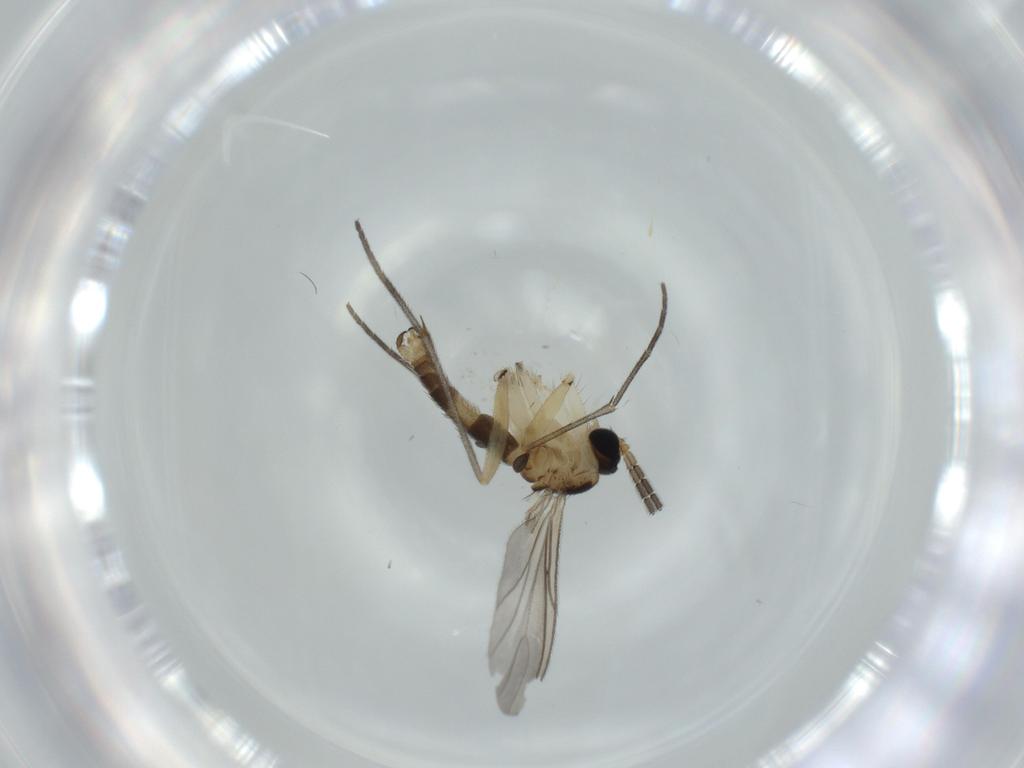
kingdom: Animalia
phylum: Arthropoda
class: Insecta
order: Diptera
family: Sciaridae
